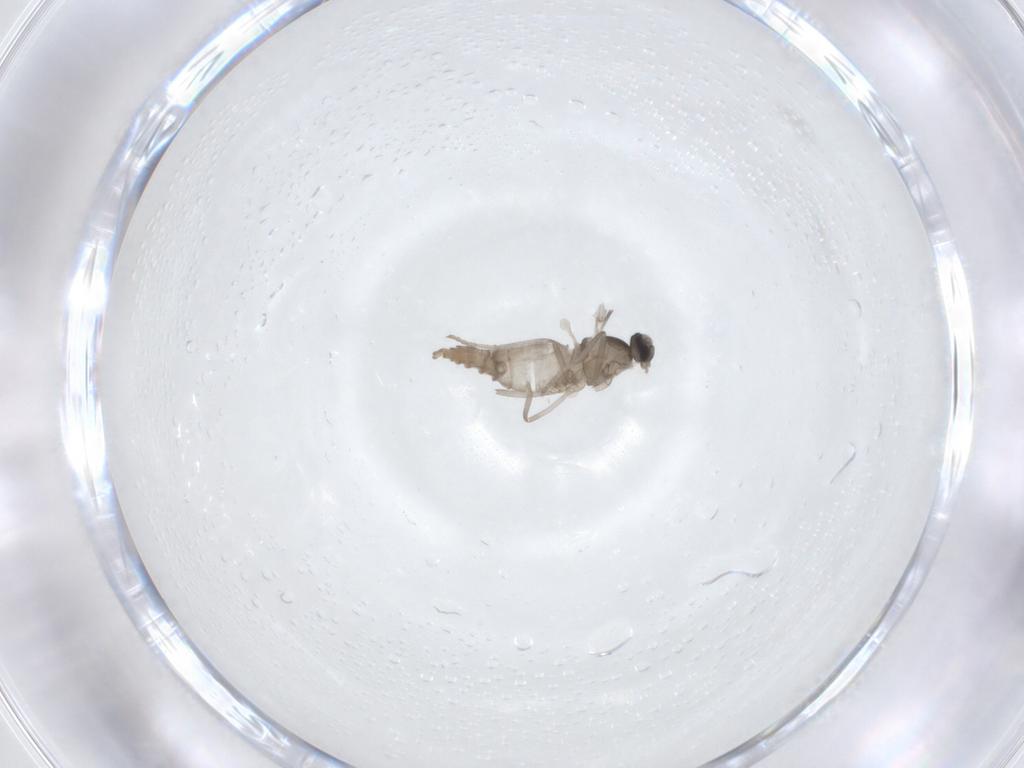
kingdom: Animalia
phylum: Arthropoda
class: Insecta
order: Diptera
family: Cecidomyiidae
